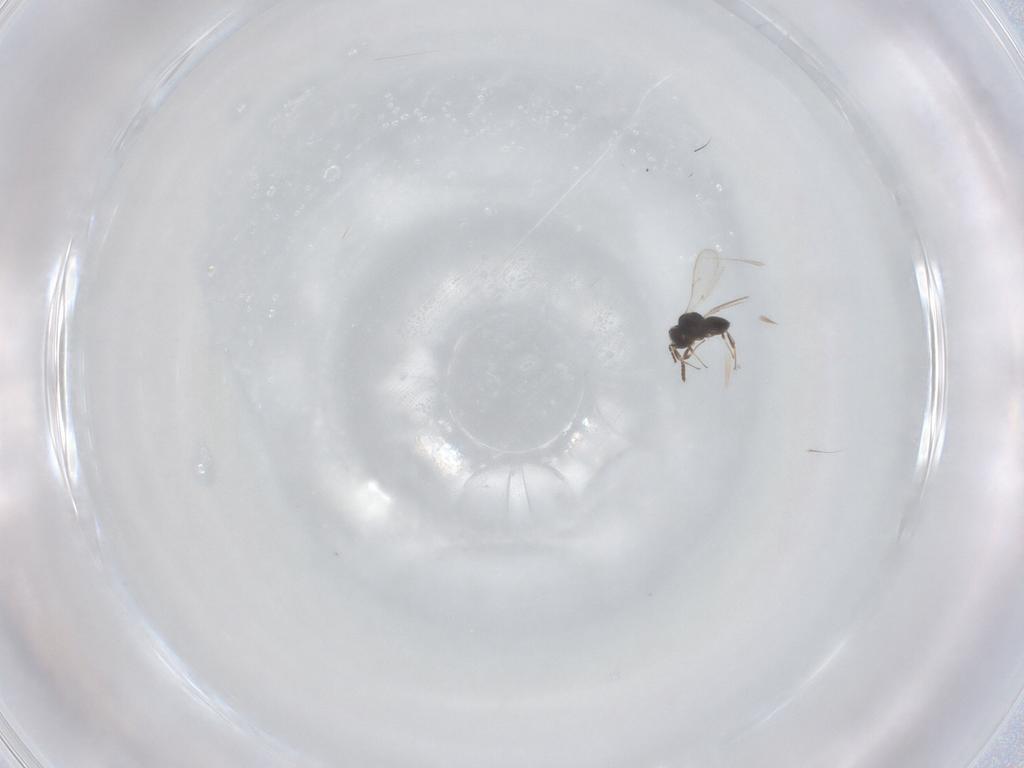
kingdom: Animalia
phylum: Arthropoda
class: Insecta
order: Hymenoptera
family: Scelionidae
